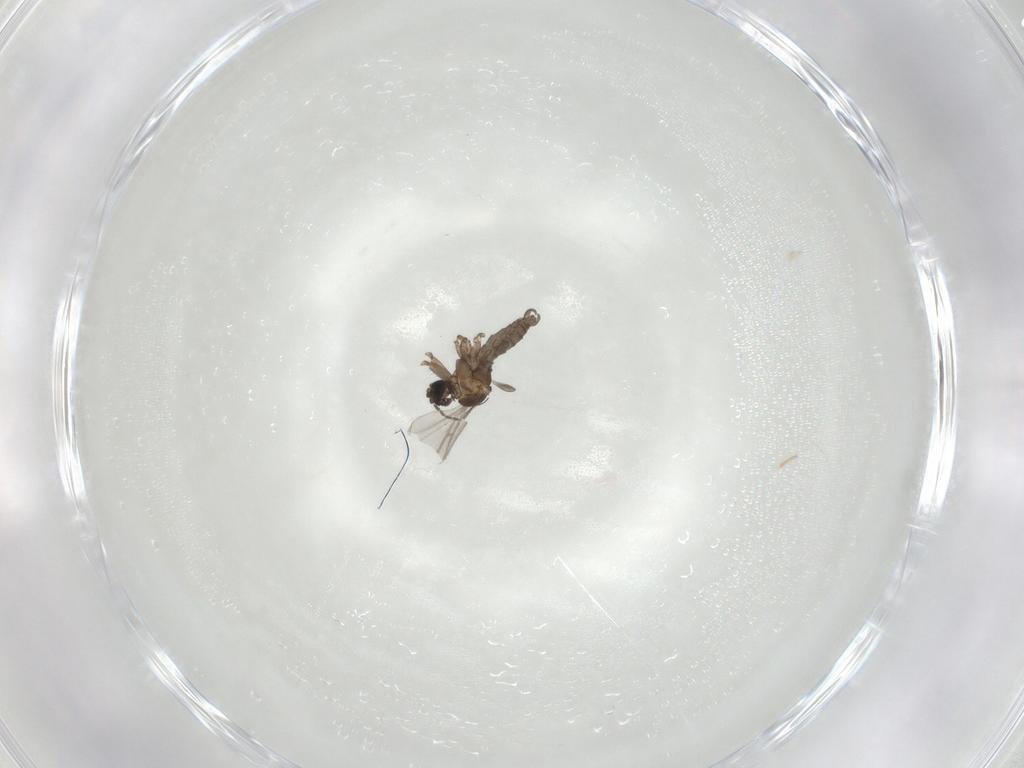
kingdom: Animalia
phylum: Arthropoda
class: Insecta
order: Diptera
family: Sciaridae
